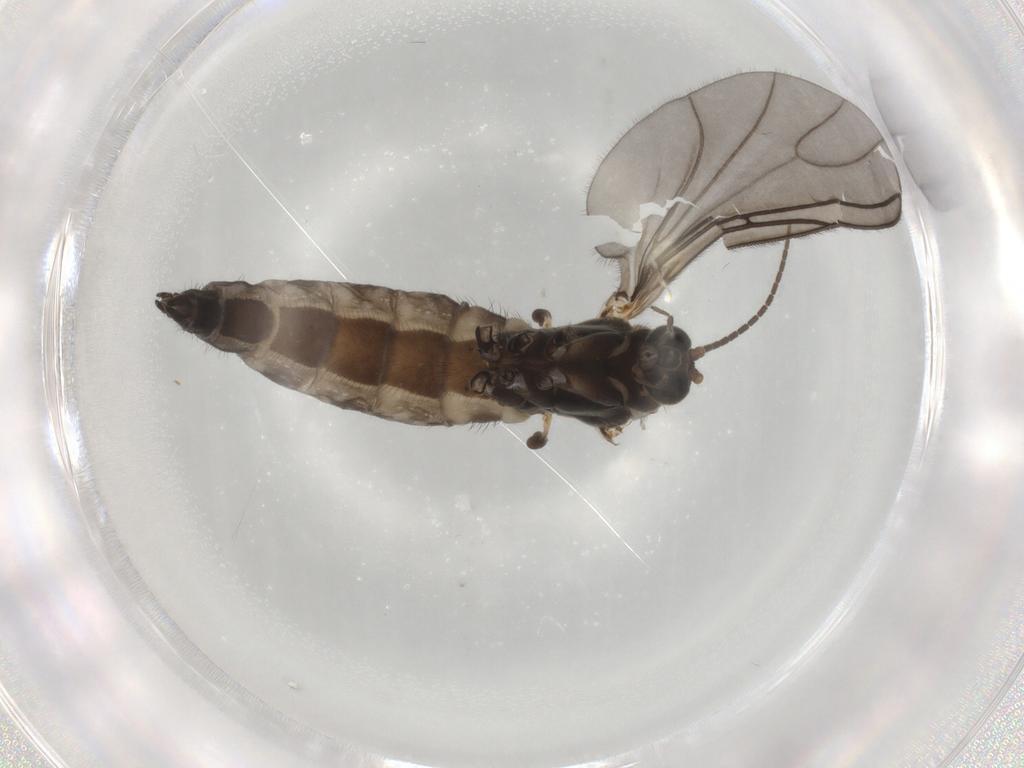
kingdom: Animalia
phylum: Arthropoda
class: Insecta
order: Diptera
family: Sciaridae
